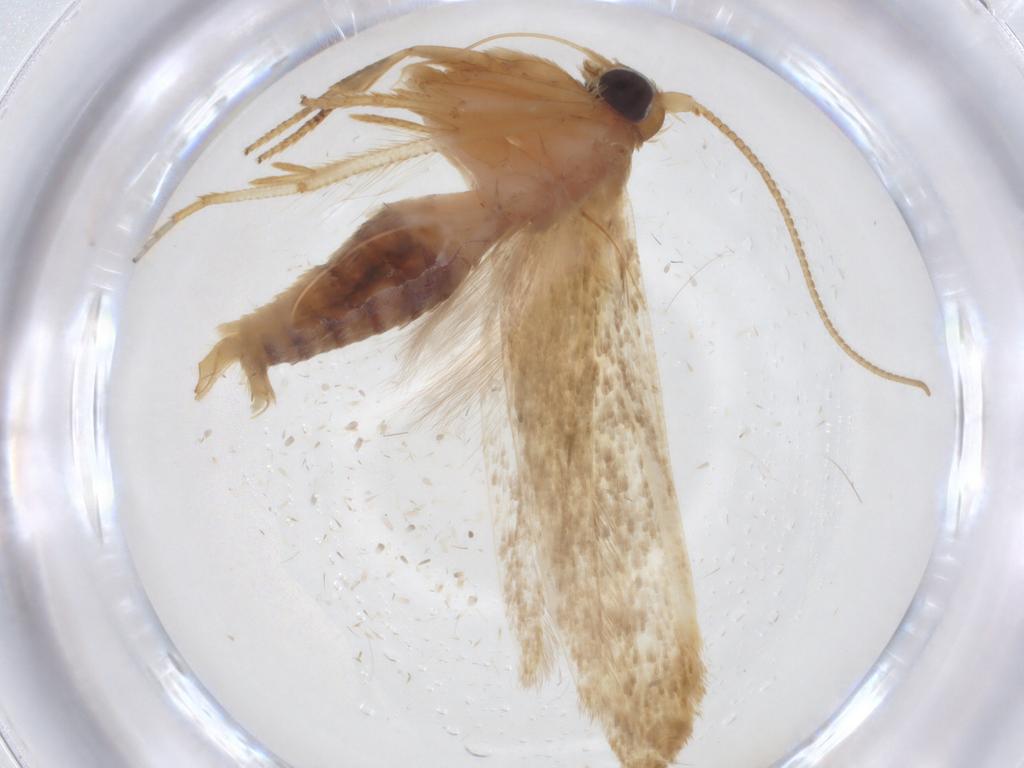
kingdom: Animalia
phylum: Arthropoda
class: Insecta
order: Lepidoptera
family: Blastobasidae
